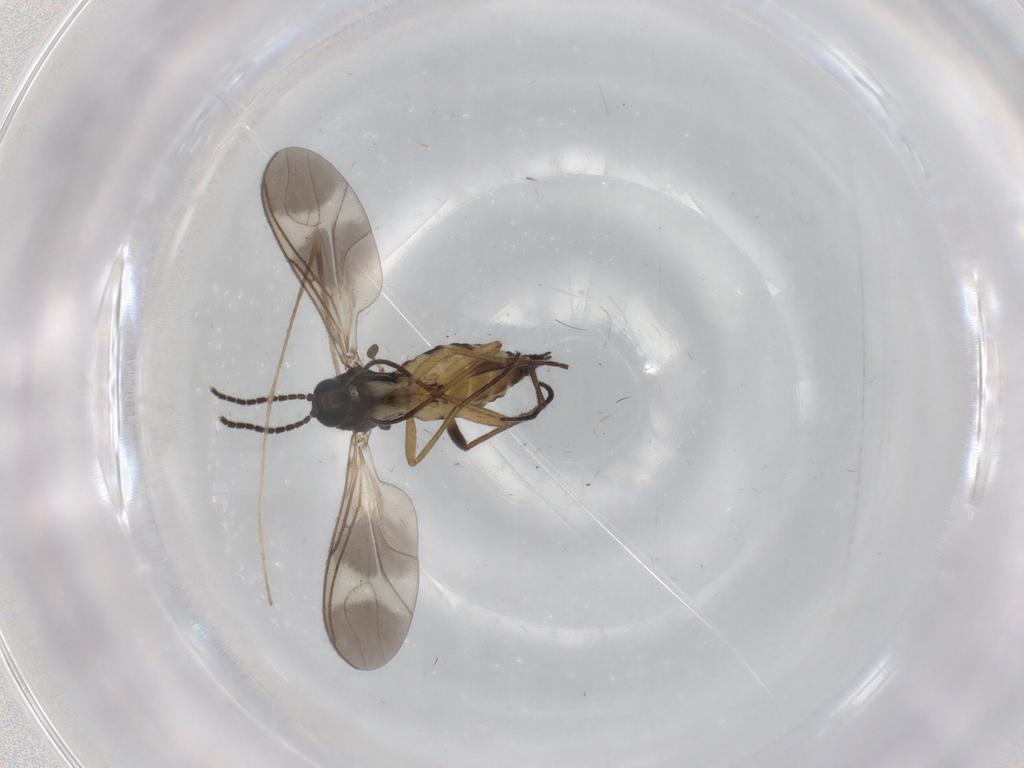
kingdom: Animalia
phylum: Arthropoda
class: Insecta
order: Diptera
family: Sciaridae
